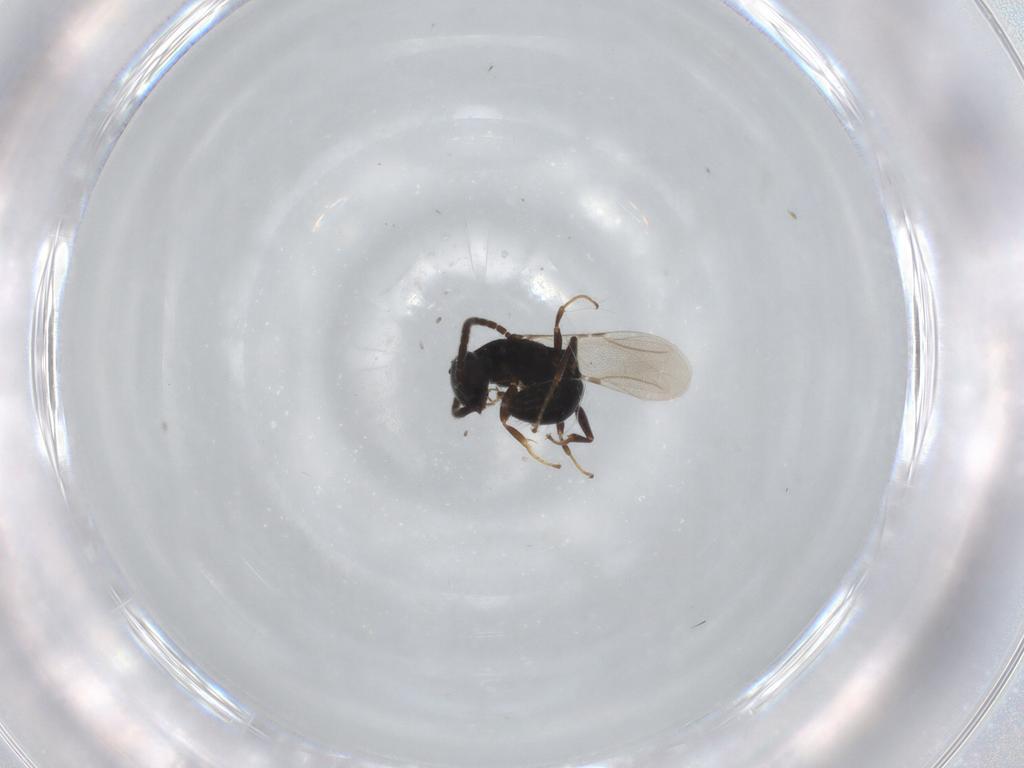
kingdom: Animalia
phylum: Arthropoda
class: Insecta
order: Hymenoptera
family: Bethylidae
